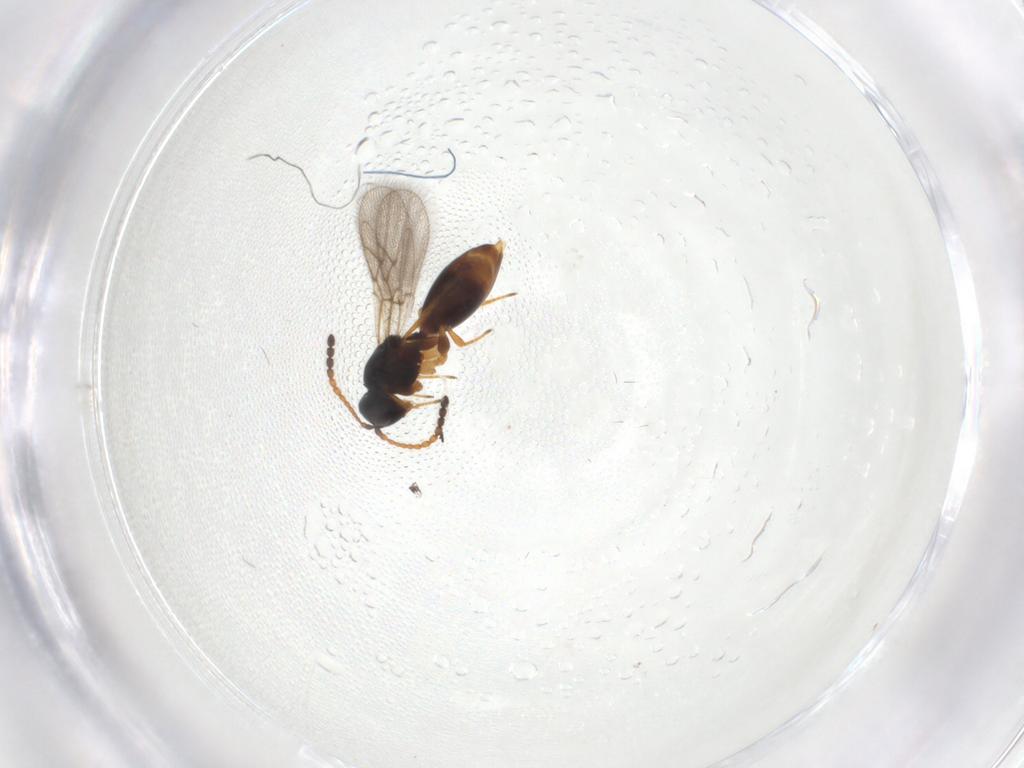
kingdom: Animalia
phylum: Arthropoda
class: Insecta
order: Hymenoptera
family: Figitidae
